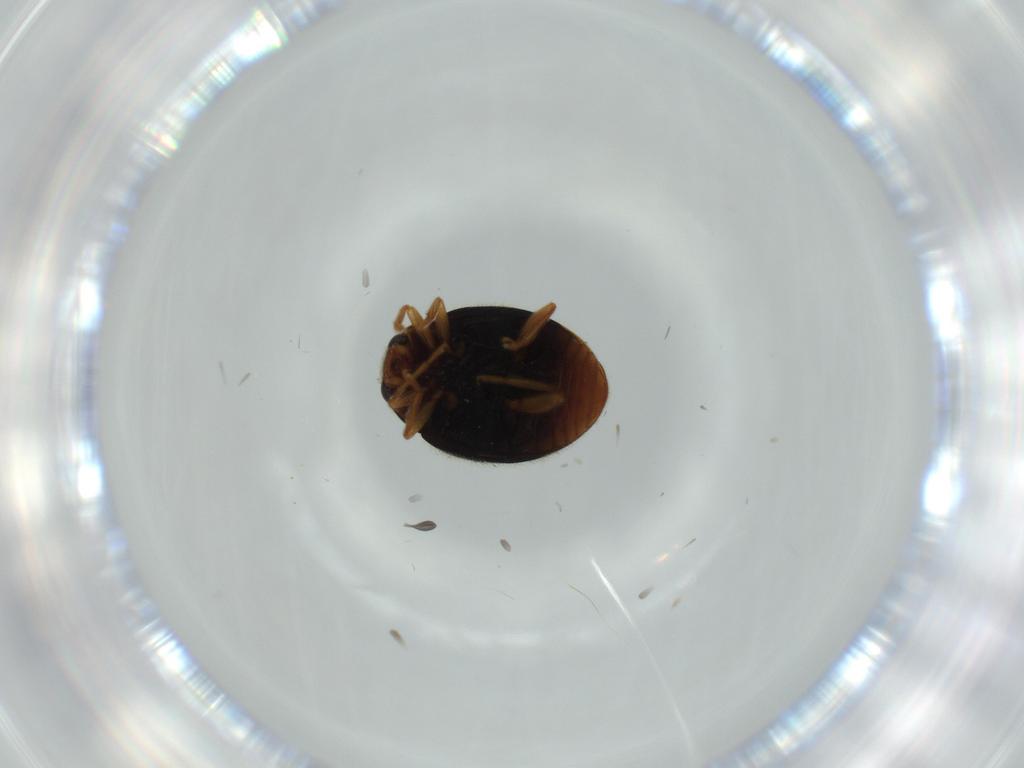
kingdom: Animalia
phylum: Arthropoda
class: Insecta
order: Coleoptera
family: Coccinellidae
